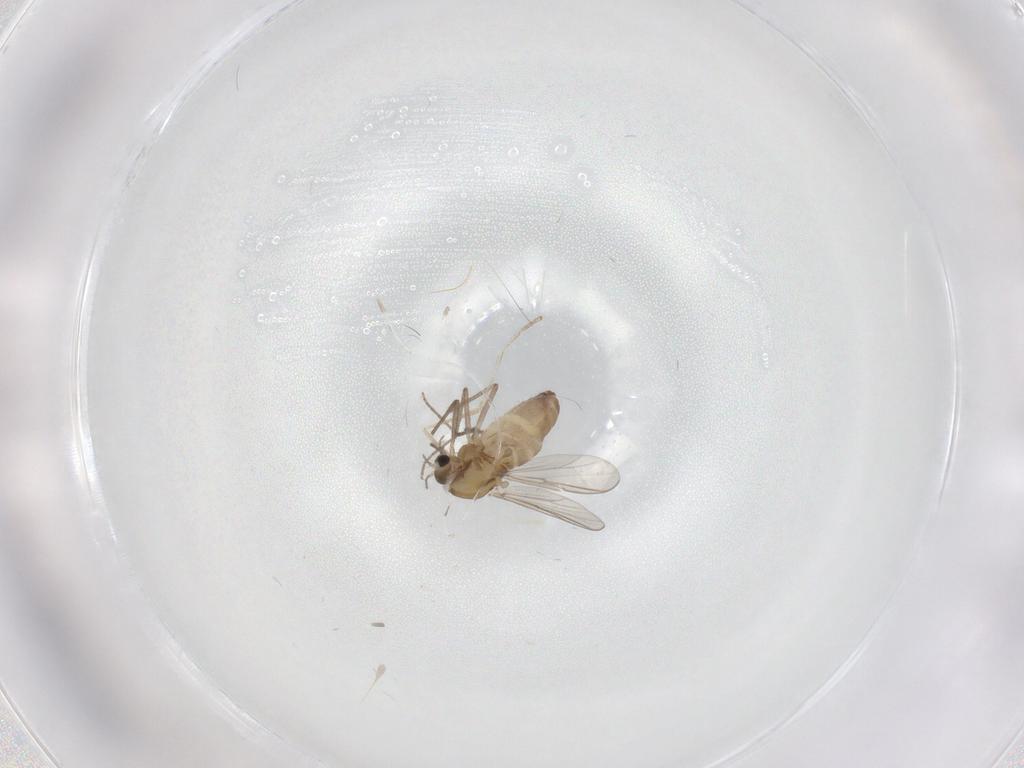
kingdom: Animalia
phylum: Arthropoda
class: Insecta
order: Diptera
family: Chironomidae
